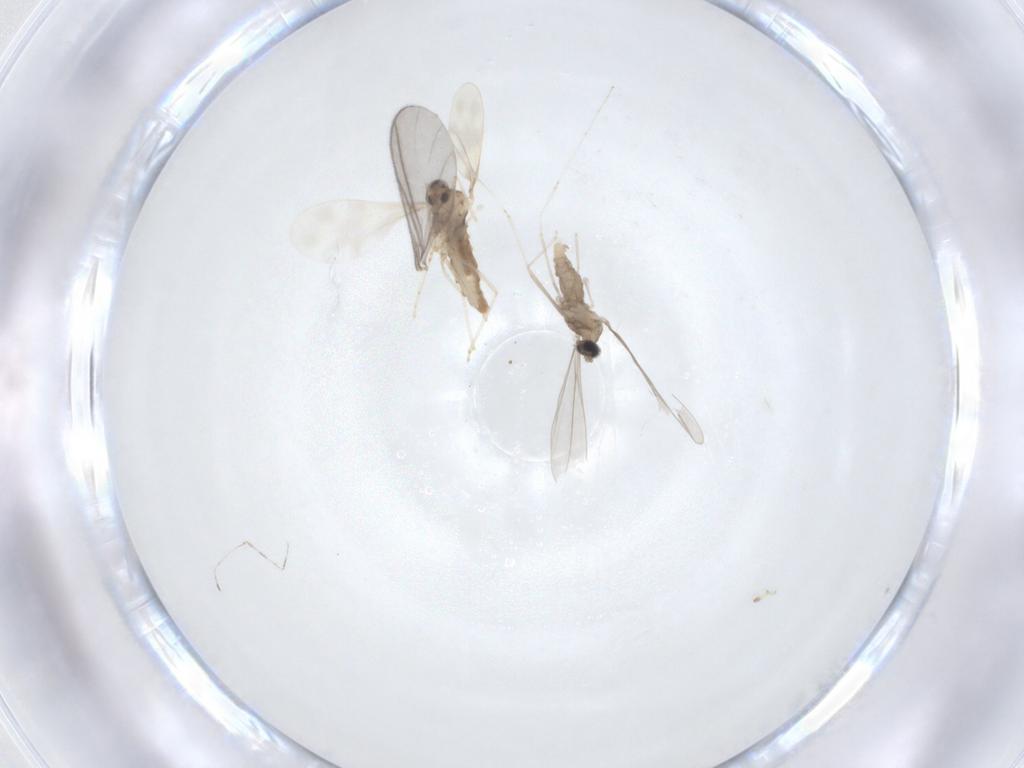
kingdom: Animalia
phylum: Arthropoda
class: Insecta
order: Diptera
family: Cecidomyiidae
